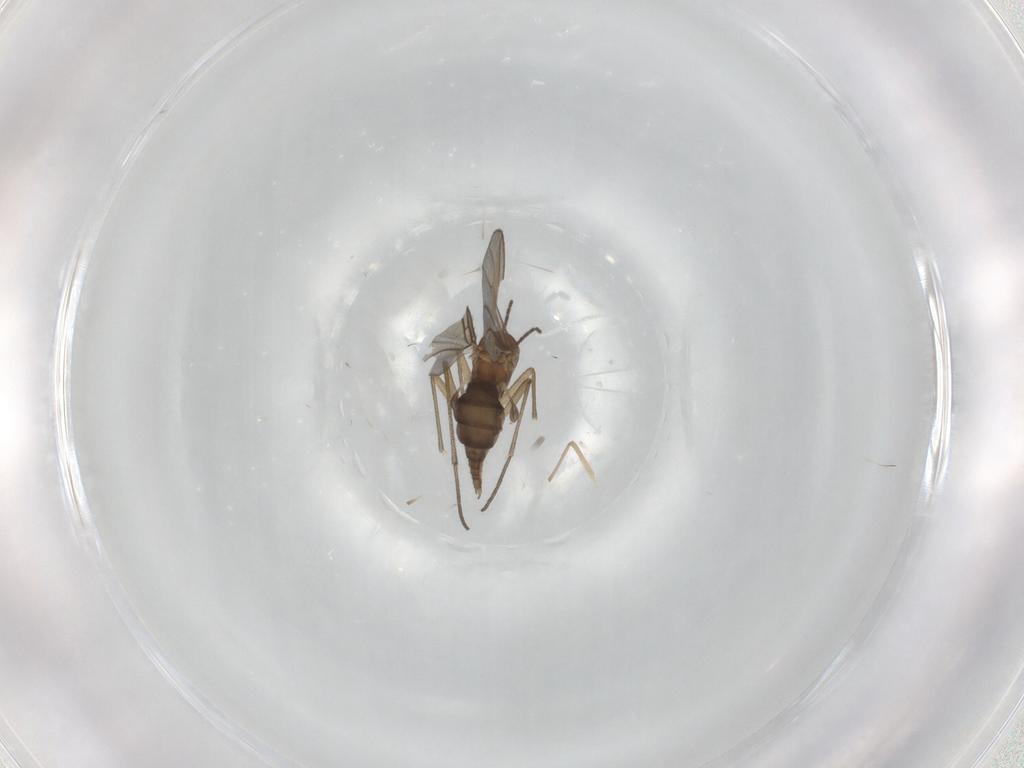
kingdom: Animalia
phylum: Arthropoda
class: Insecta
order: Diptera
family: Sciaridae
